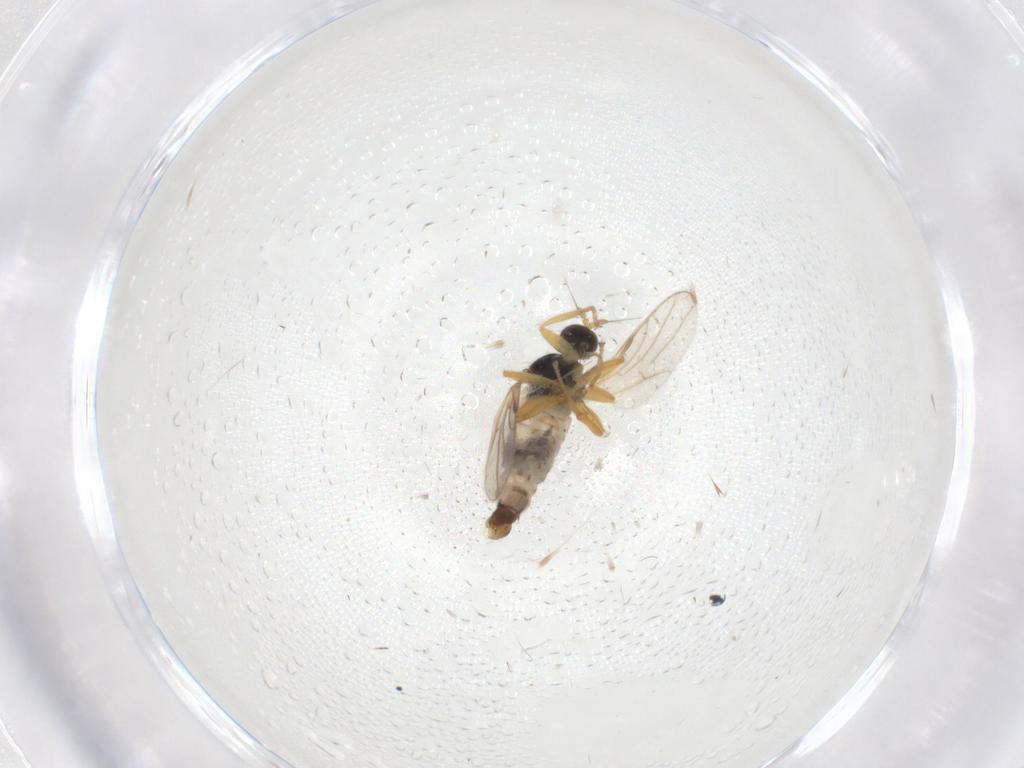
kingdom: Animalia
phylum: Arthropoda
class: Insecta
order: Diptera
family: Hybotidae
